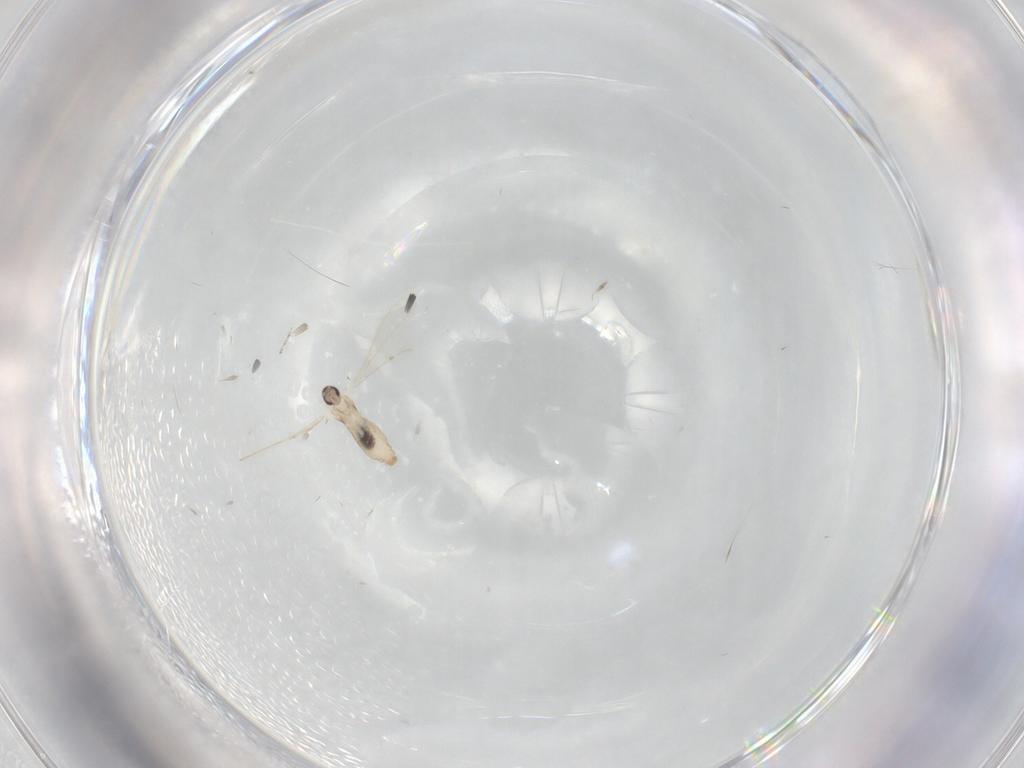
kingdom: Animalia
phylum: Arthropoda
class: Insecta
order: Diptera
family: Cecidomyiidae
